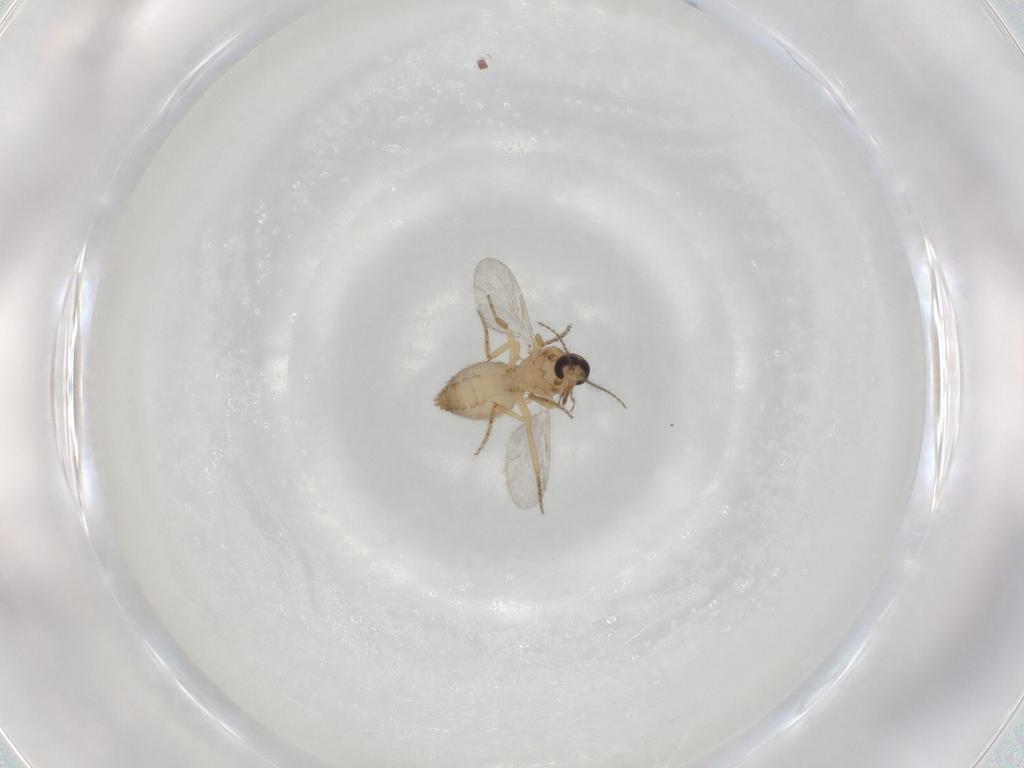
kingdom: Animalia
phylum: Arthropoda
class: Insecta
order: Diptera
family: Ceratopogonidae
